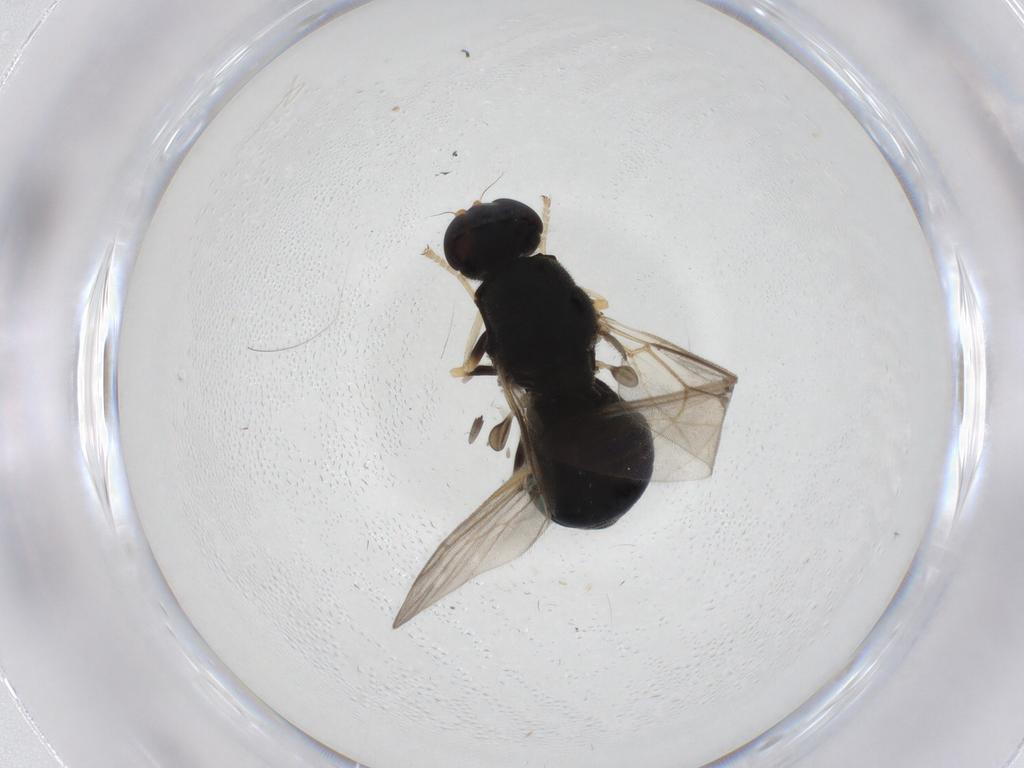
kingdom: Animalia
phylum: Arthropoda
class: Insecta
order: Diptera
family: Stratiomyidae
